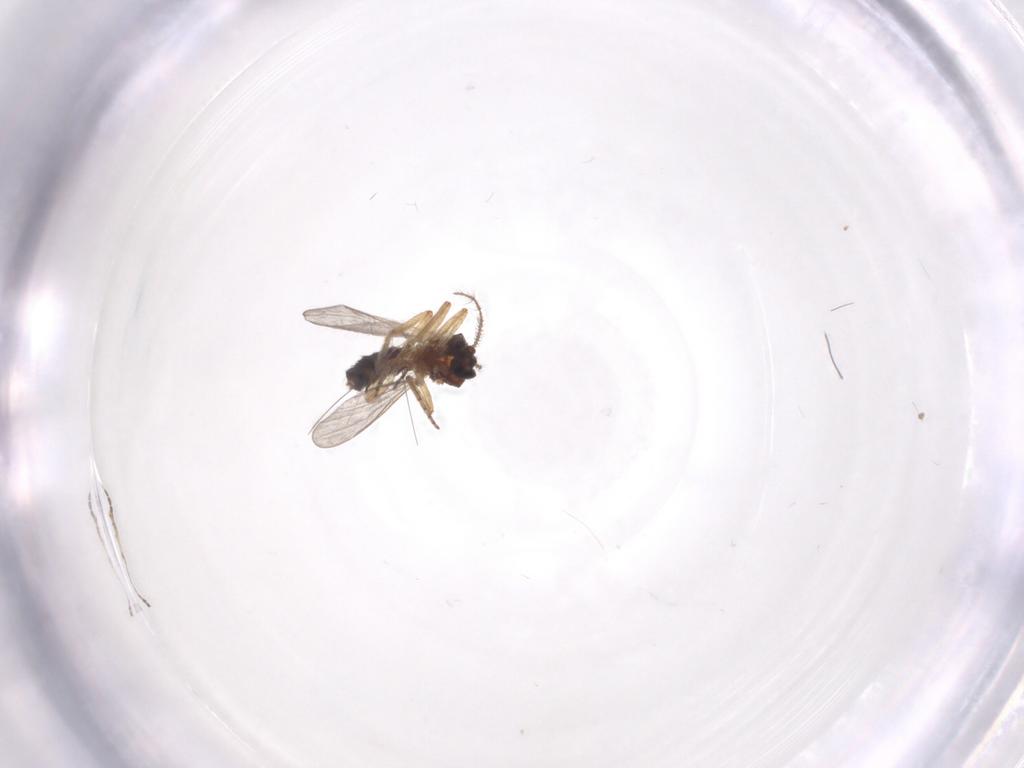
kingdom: Animalia
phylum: Arthropoda
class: Insecta
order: Diptera
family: Ceratopogonidae
